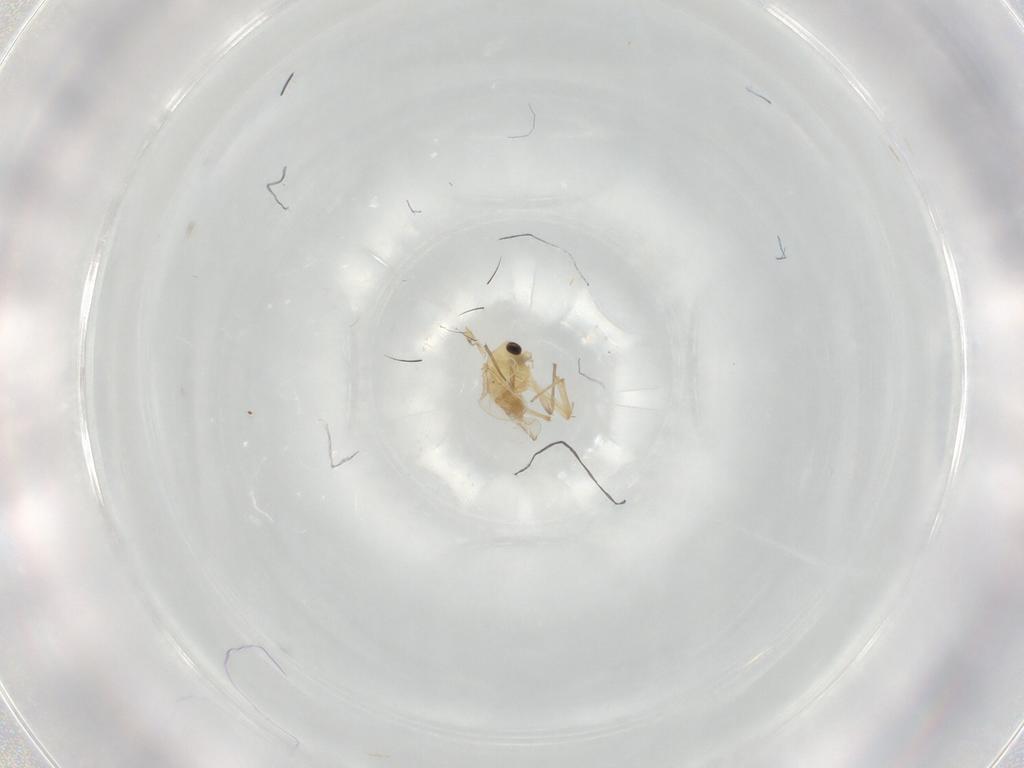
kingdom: Animalia
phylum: Arthropoda
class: Insecta
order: Diptera
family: Chironomidae
